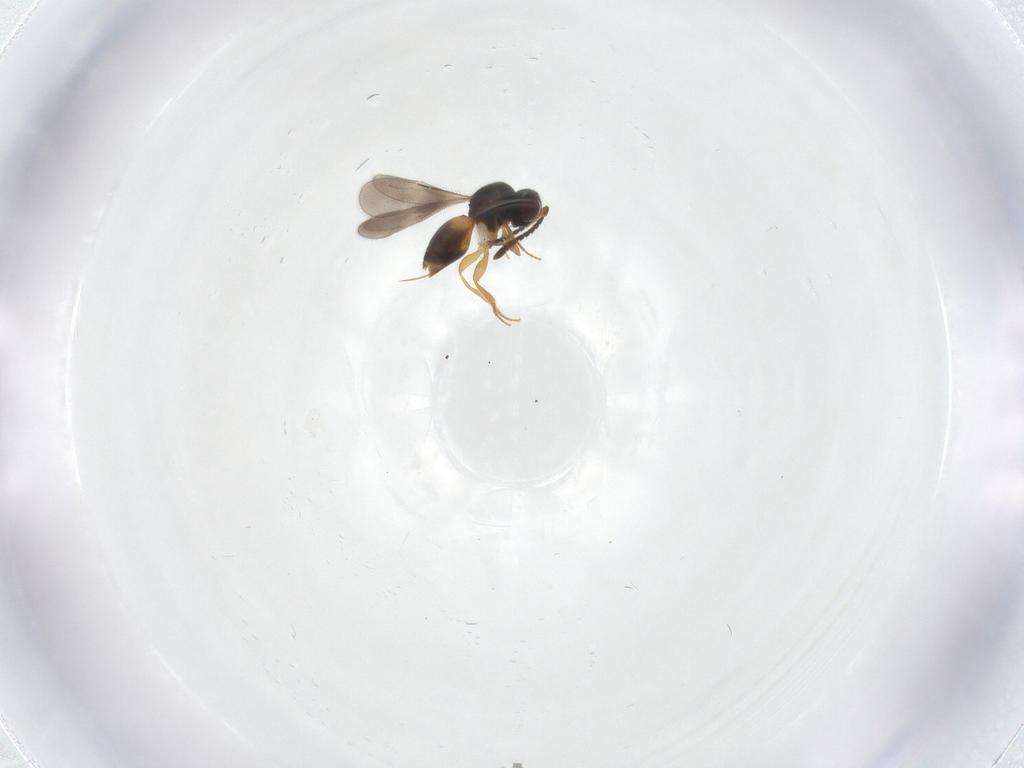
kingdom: Animalia
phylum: Arthropoda
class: Insecta
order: Hymenoptera
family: Ceraphronidae
